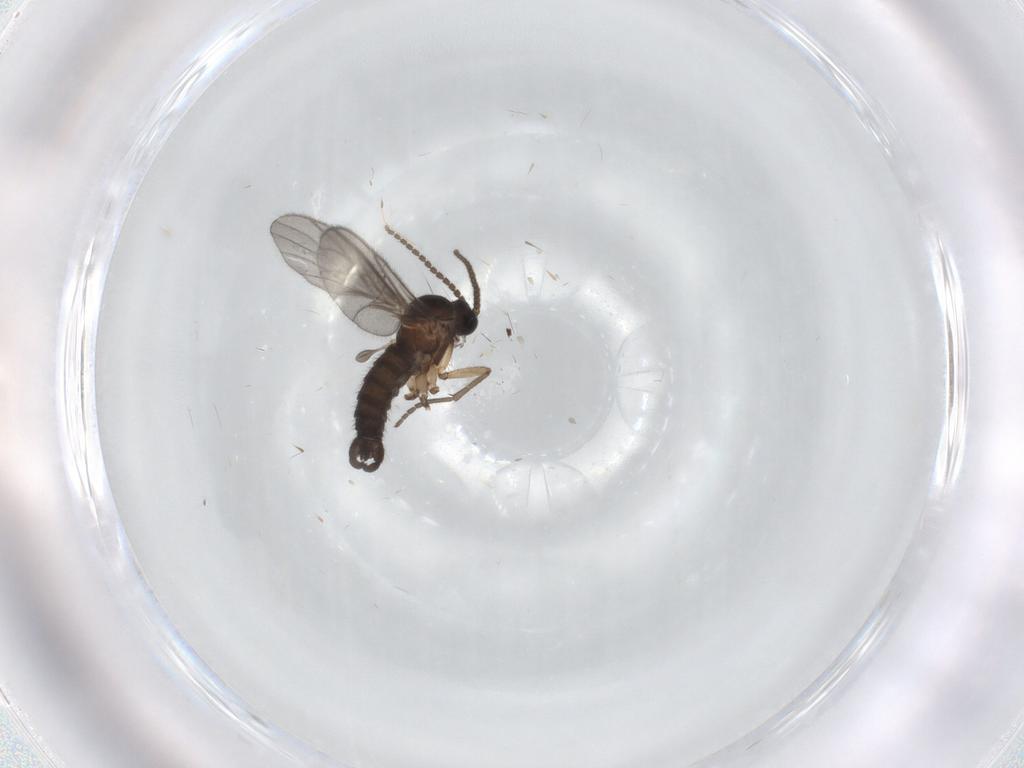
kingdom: Animalia
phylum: Arthropoda
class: Insecta
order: Diptera
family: Sciaridae
